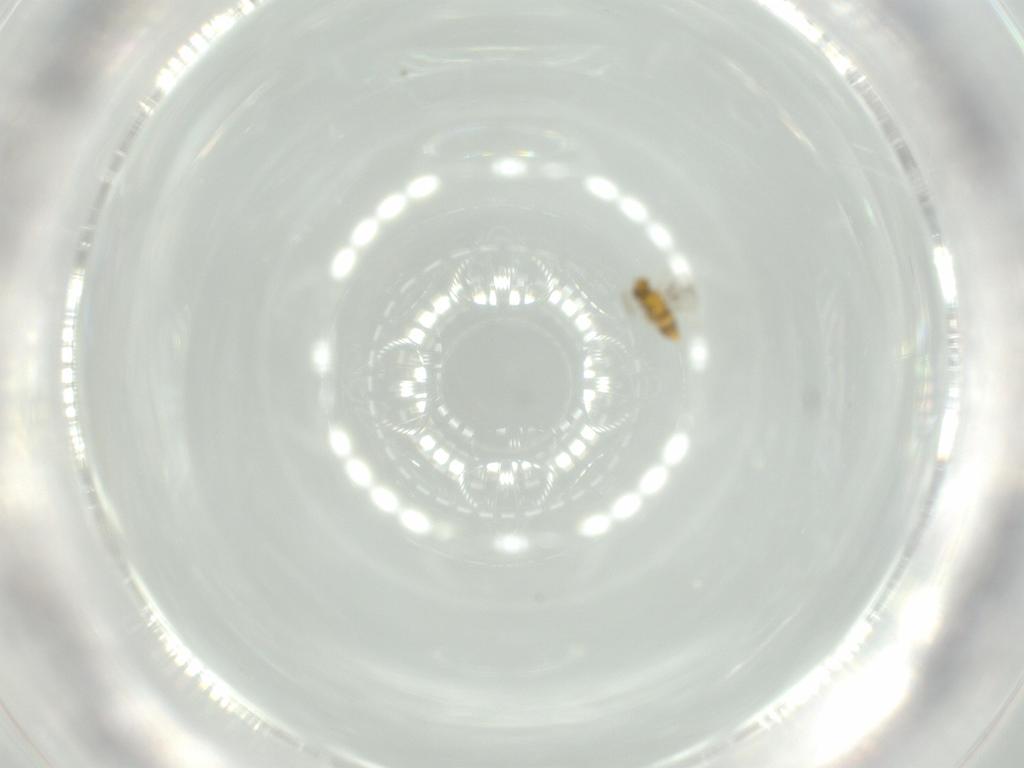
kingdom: Animalia
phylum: Arthropoda
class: Insecta
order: Hymenoptera
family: Aphelinidae
